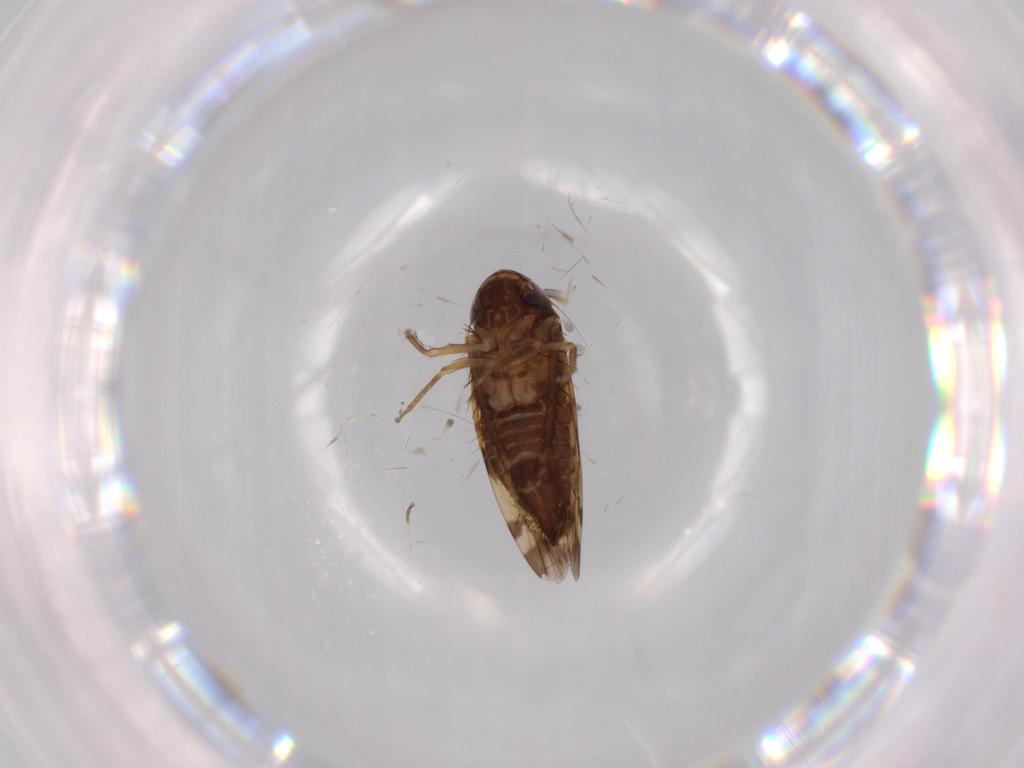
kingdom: Animalia
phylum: Arthropoda
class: Insecta
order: Hemiptera
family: Cicadellidae
